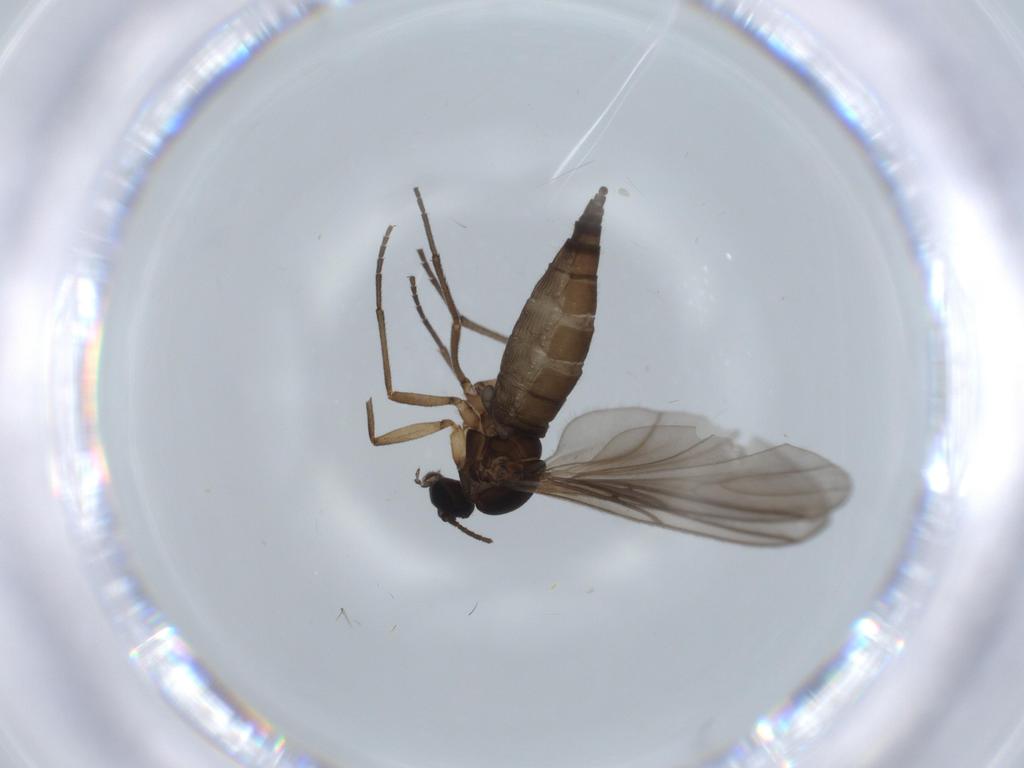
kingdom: Animalia
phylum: Arthropoda
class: Insecta
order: Diptera
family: Sciaridae
